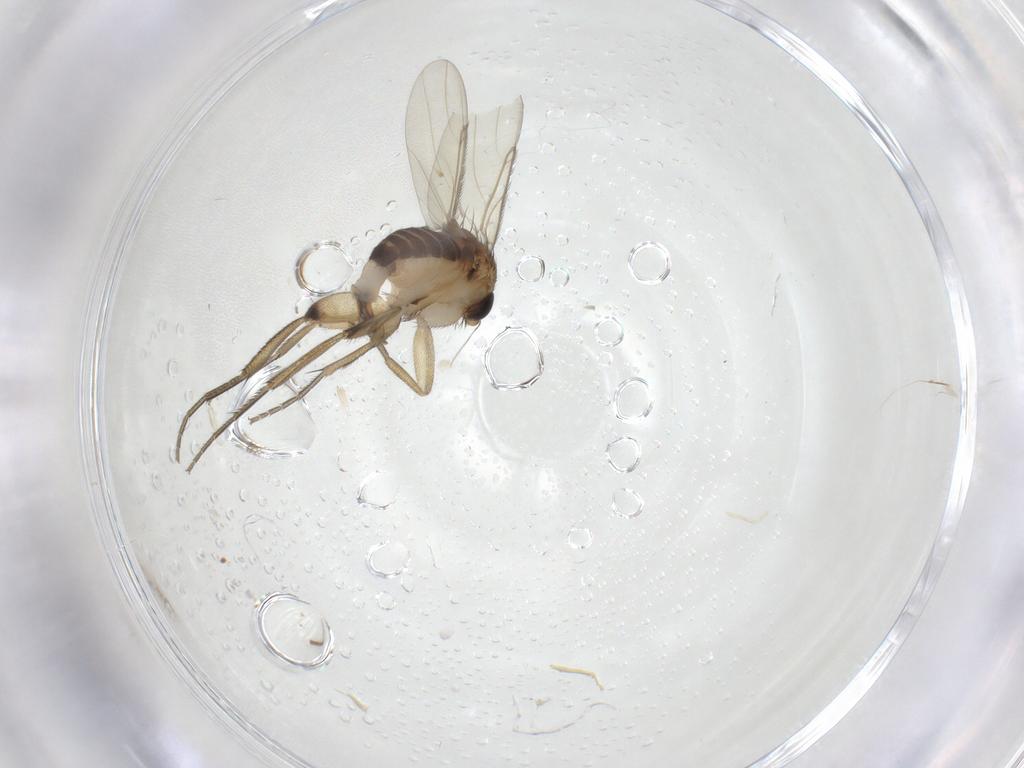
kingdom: Animalia
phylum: Arthropoda
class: Insecta
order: Diptera
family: Phoridae
